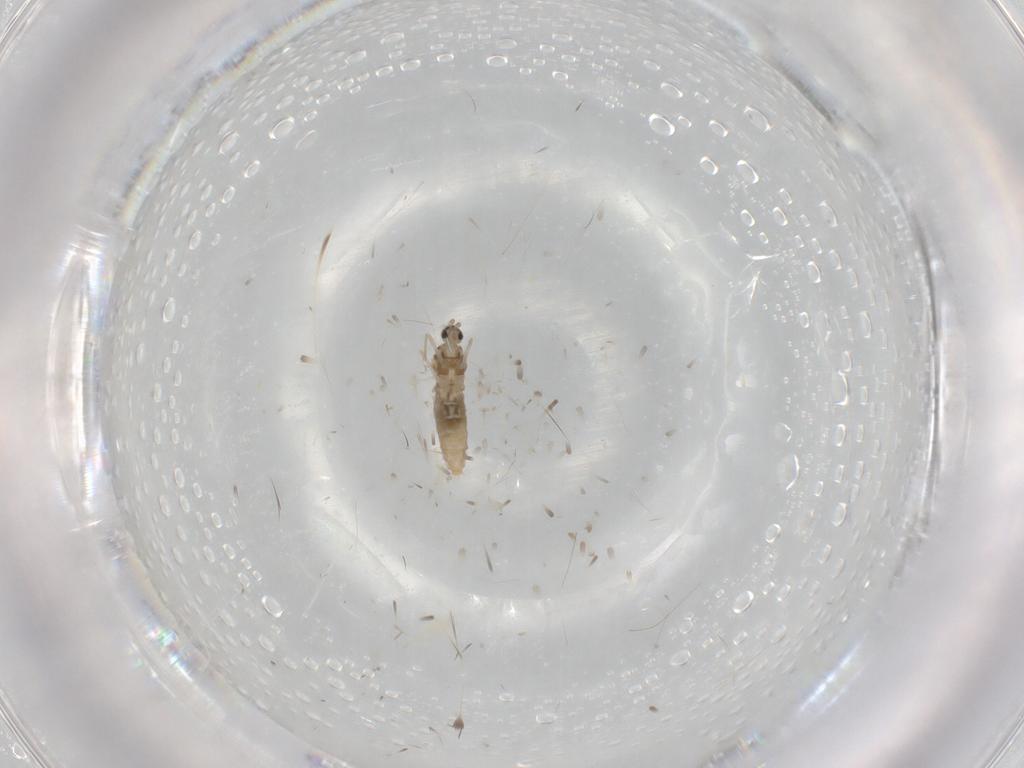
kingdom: Animalia
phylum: Arthropoda
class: Insecta
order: Diptera
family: Cecidomyiidae
